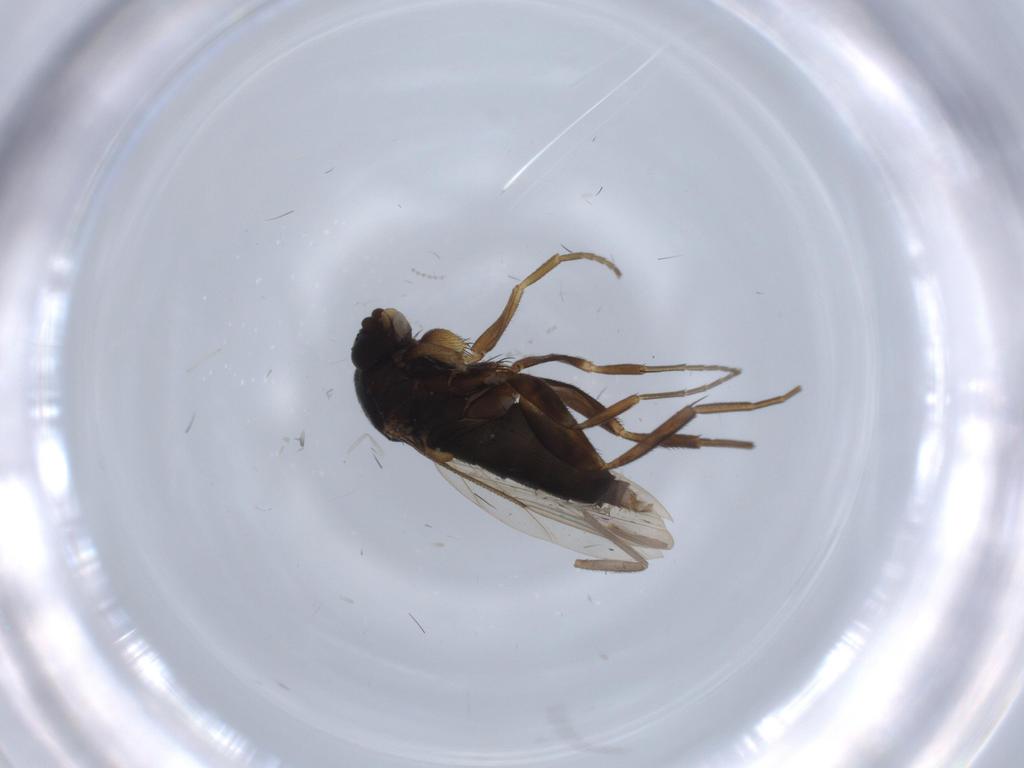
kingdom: Animalia
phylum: Arthropoda
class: Insecta
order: Diptera
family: Phoridae
